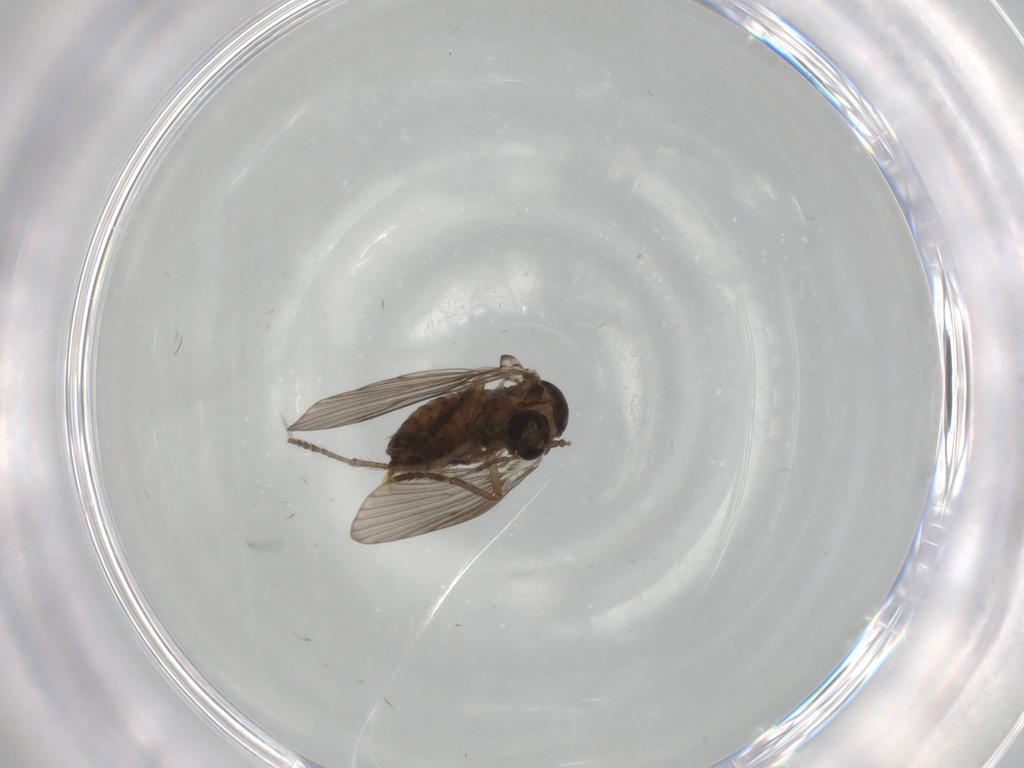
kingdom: Animalia
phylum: Arthropoda
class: Insecta
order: Diptera
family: Psychodidae
